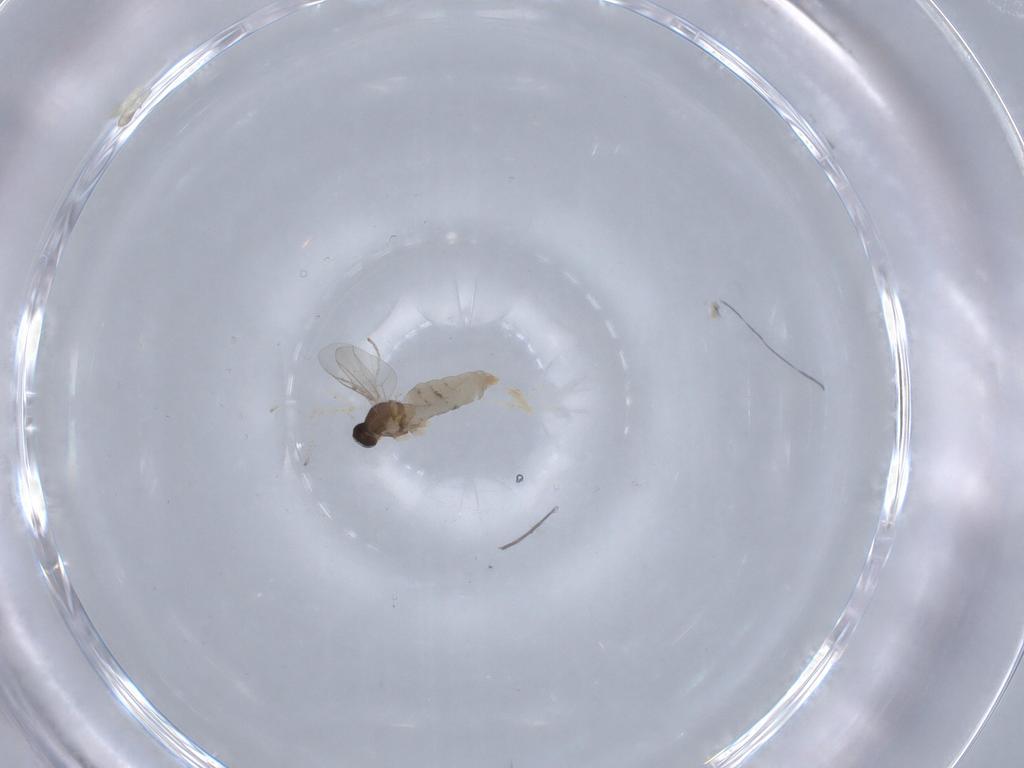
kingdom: Animalia
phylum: Arthropoda
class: Insecta
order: Diptera
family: Cecidomyiidae
